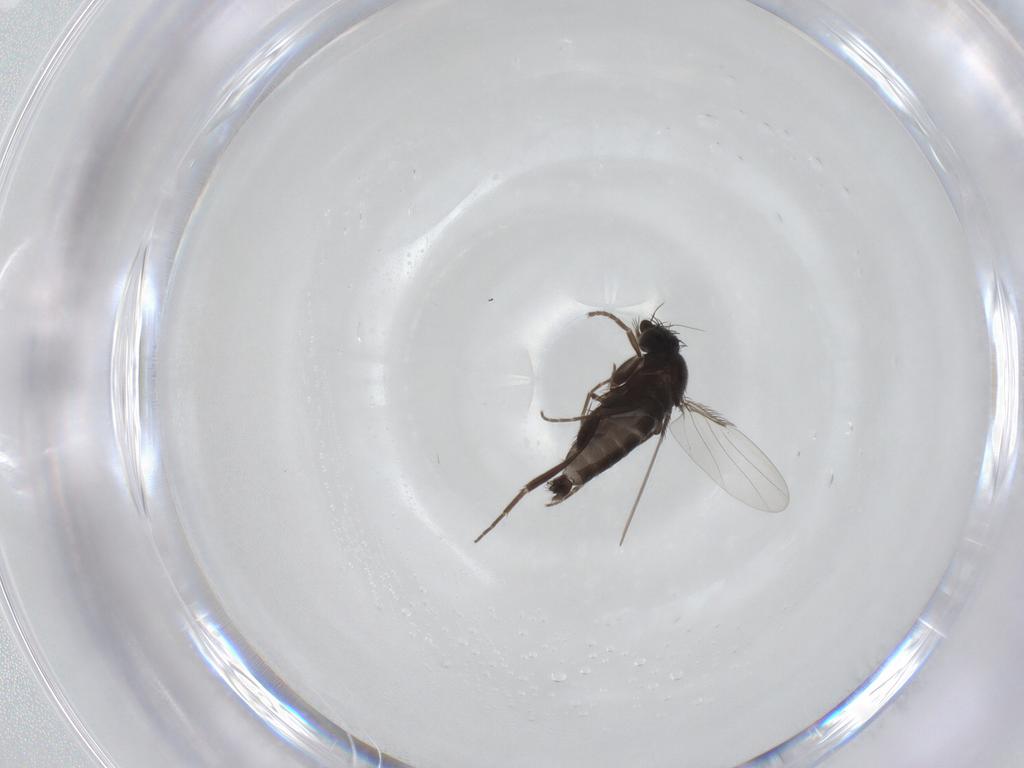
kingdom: Animalia
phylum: Arthropoda
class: Insecta
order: Diptera
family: Phoridae
